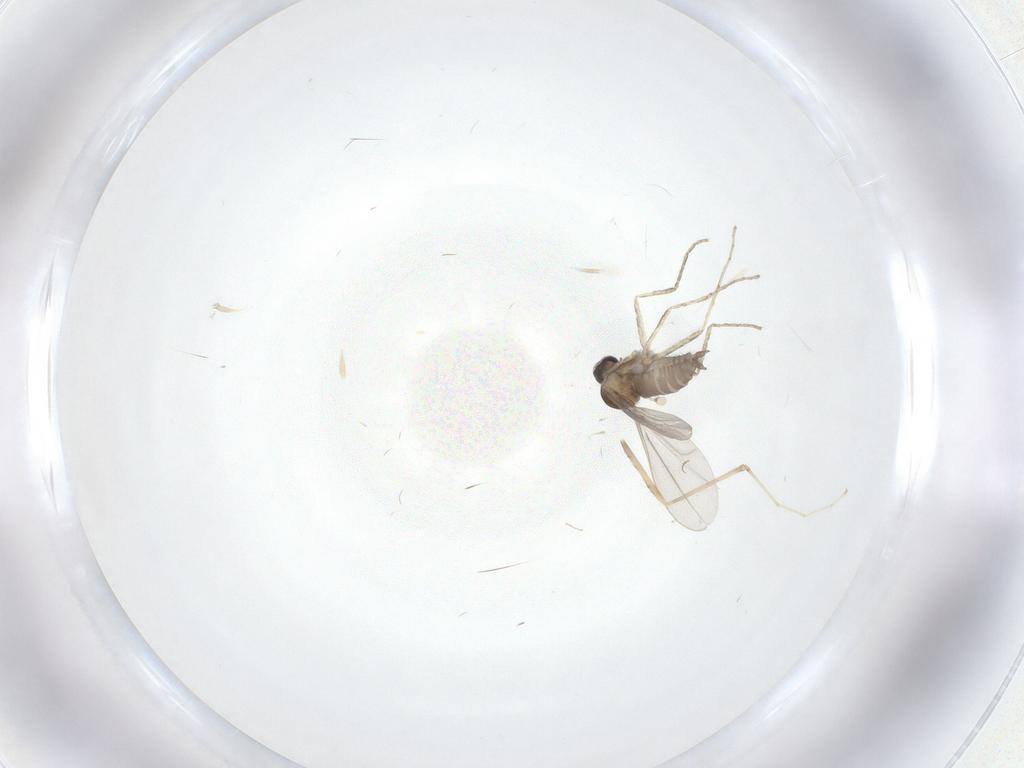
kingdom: Animalia
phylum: Arthropoda
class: Insecta
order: Diptera
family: Cecidomyiidae
